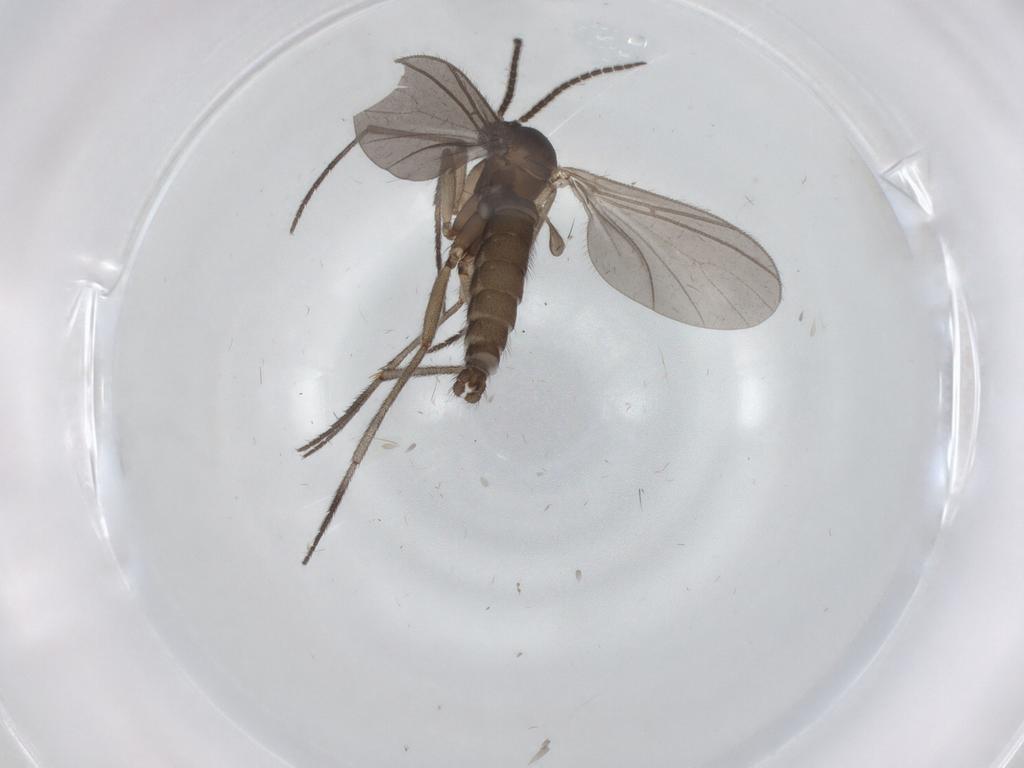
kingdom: Animalia
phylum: Arthropoda
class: Insecta
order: Diptera
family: Sciaridae
